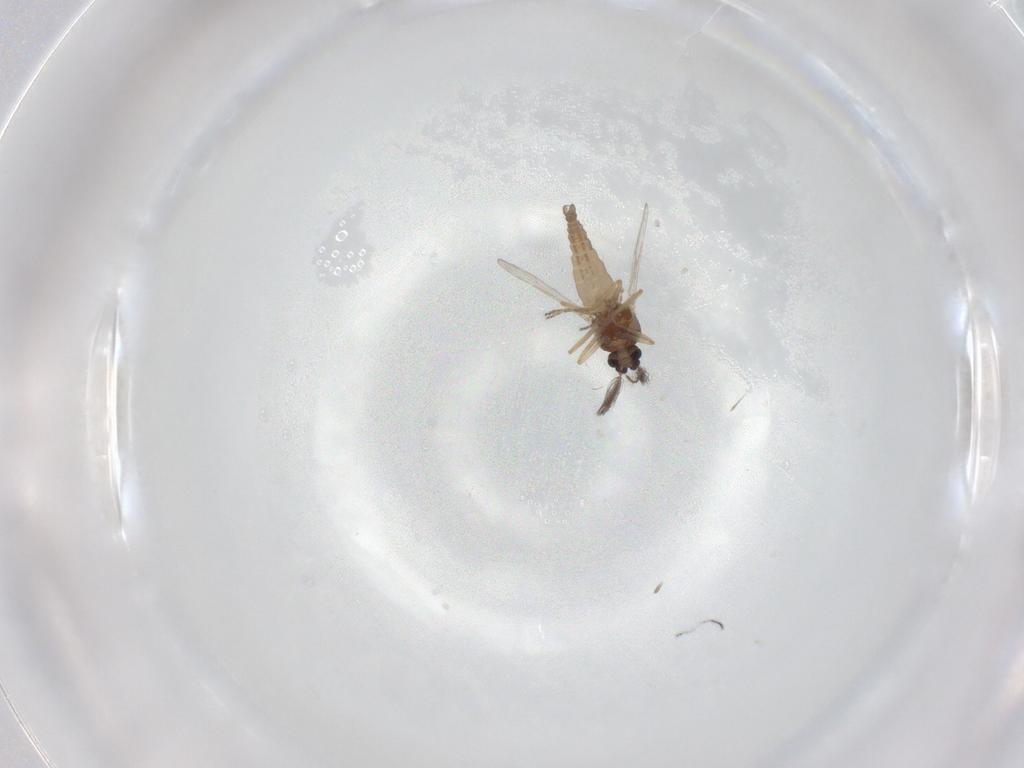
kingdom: Animalia
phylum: Arthropoda
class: Insecta
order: Diptera
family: Ceratopogonidae
